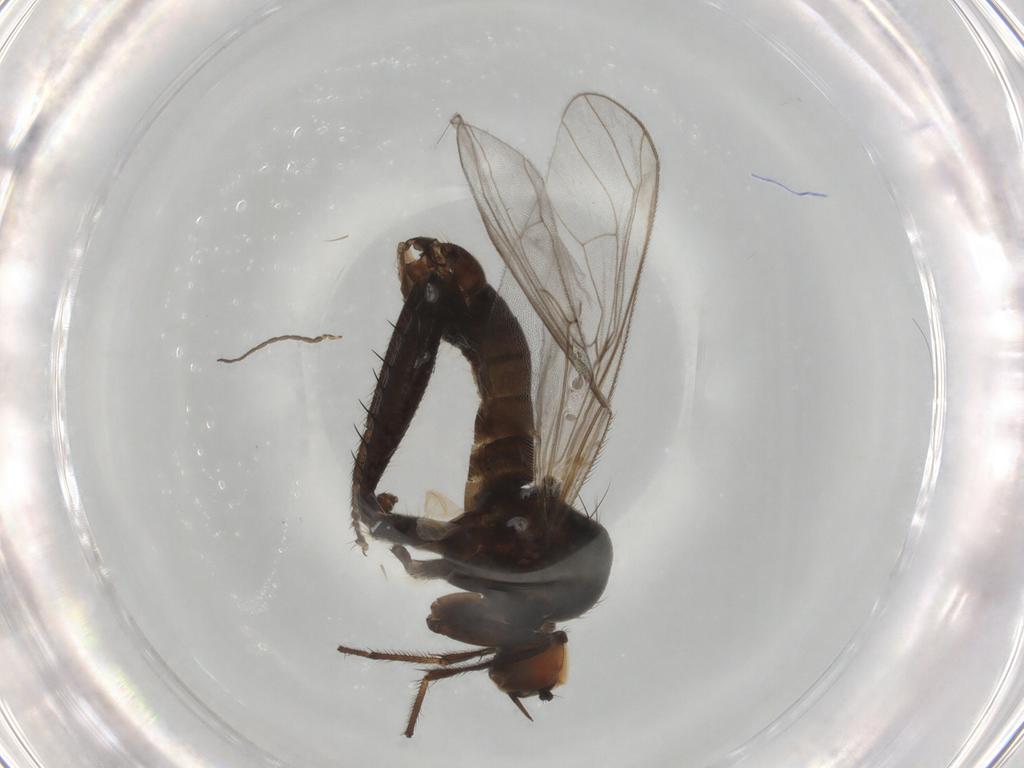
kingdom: Animalia
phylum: Arthropoda
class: Insecta
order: Diptera
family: Hybotidae
